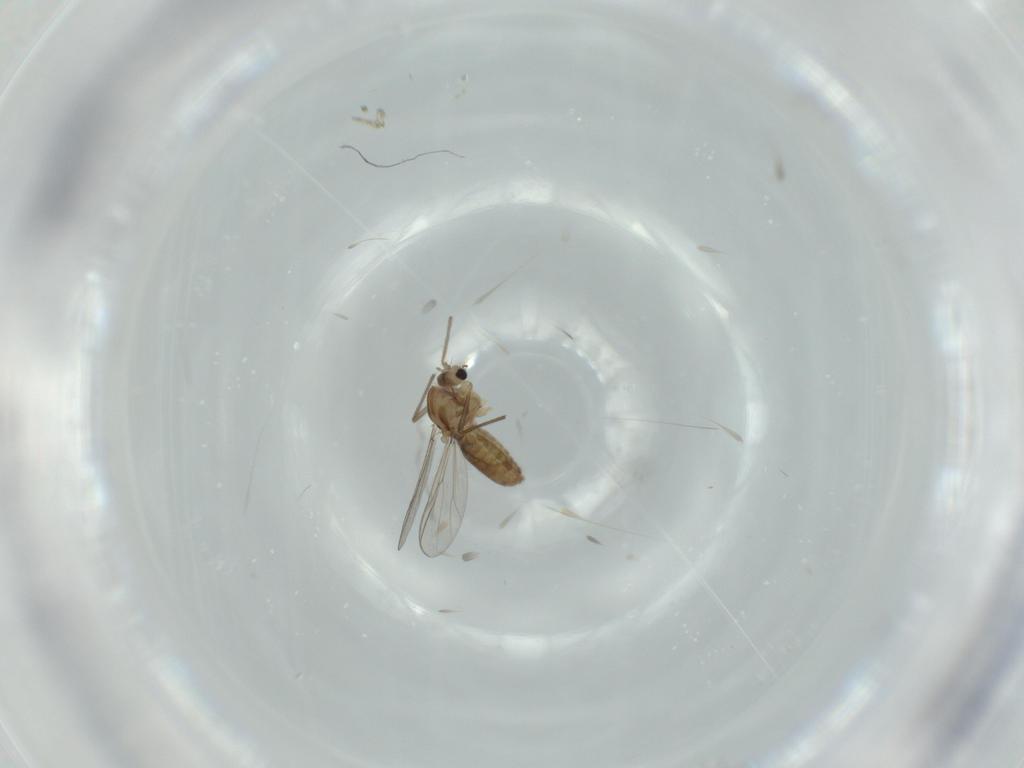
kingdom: Animalia
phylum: Arthropoda
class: Insecta
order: Diptera
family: Chironomidae
